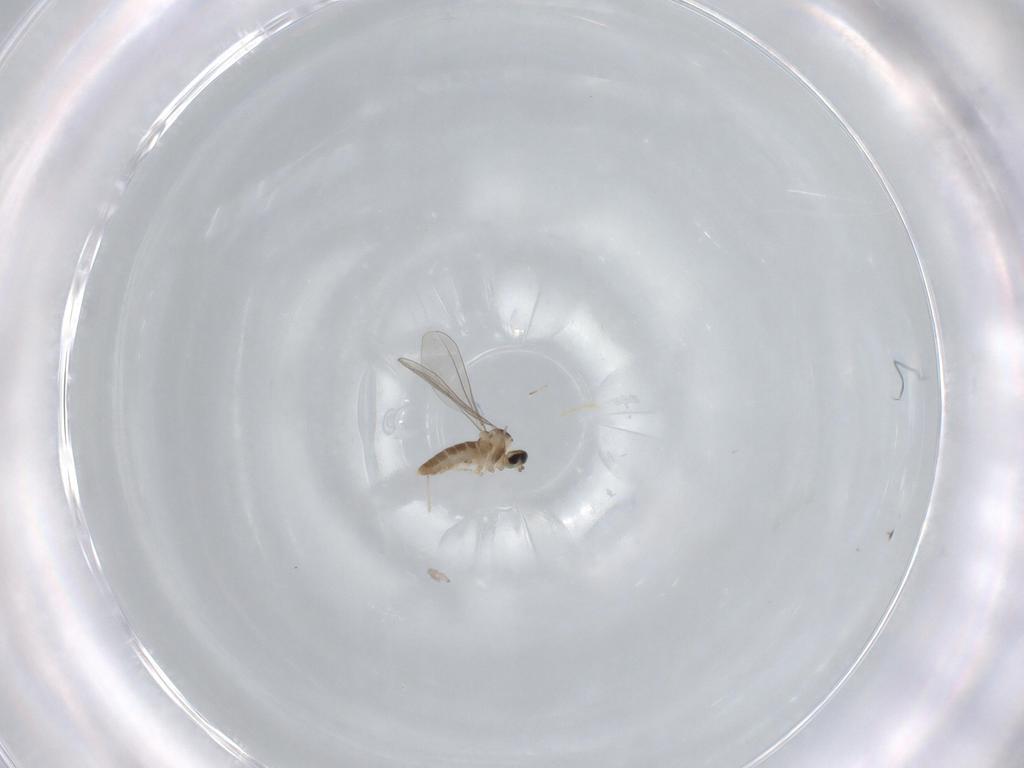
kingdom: Animalia
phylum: Arthropoda
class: Insecta
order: Diptera
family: Cecidomyiidae
